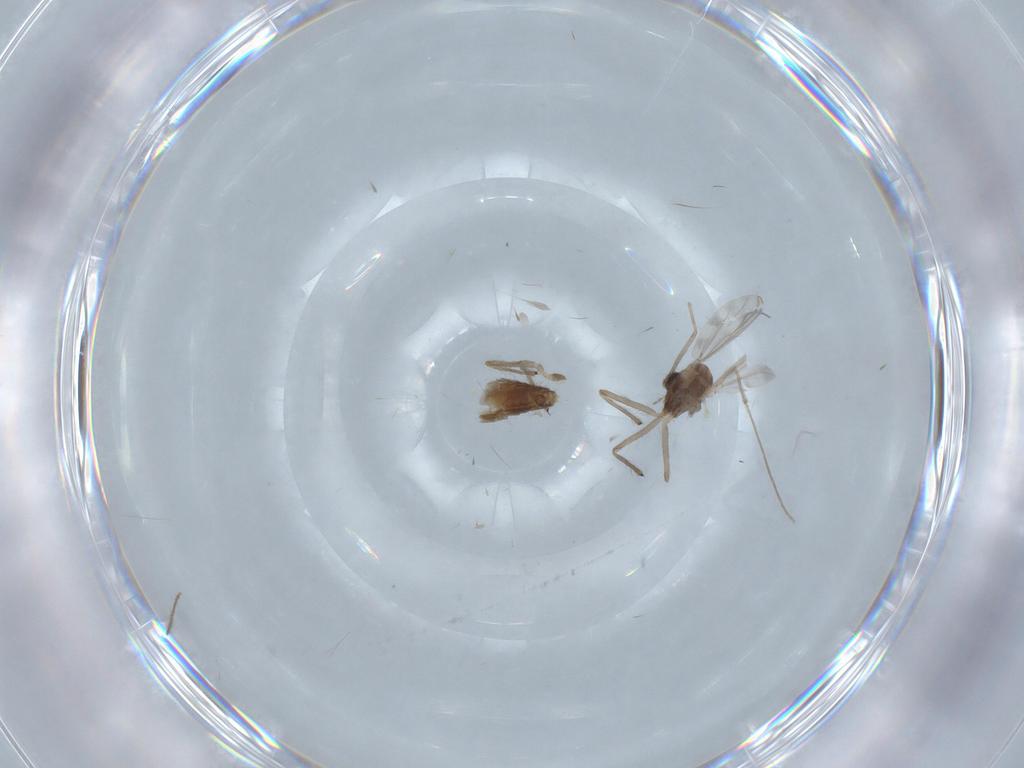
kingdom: Animalia
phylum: Arthropoda
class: Insecta
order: Diptera
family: Chironomidae
